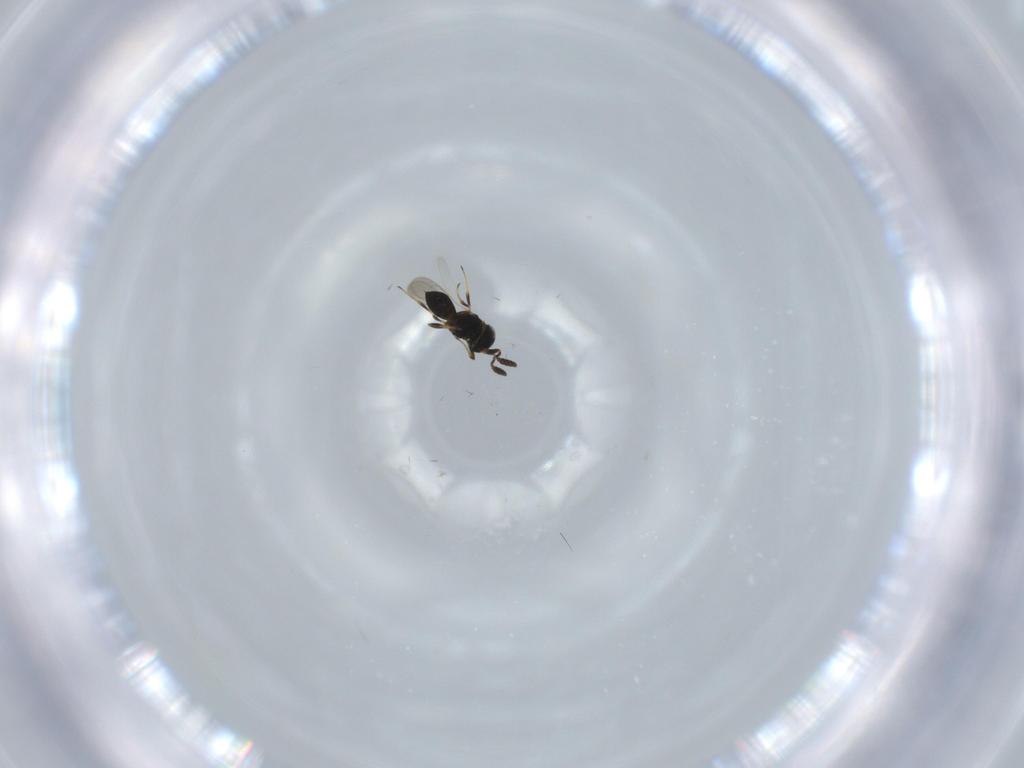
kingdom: Animalia
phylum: Arthropoda
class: Insecta
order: Hymenoptera
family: Scelionidae
